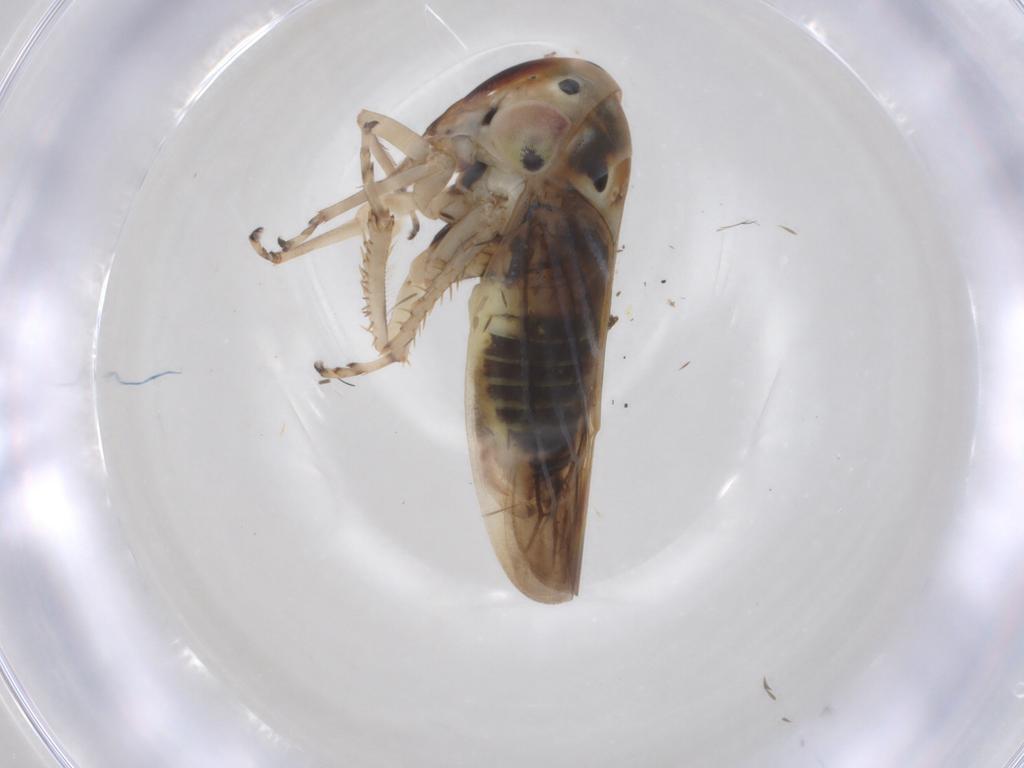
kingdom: Animalia
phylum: Arthropoda
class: Insecta
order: Hemiptera
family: Cicadellidae
